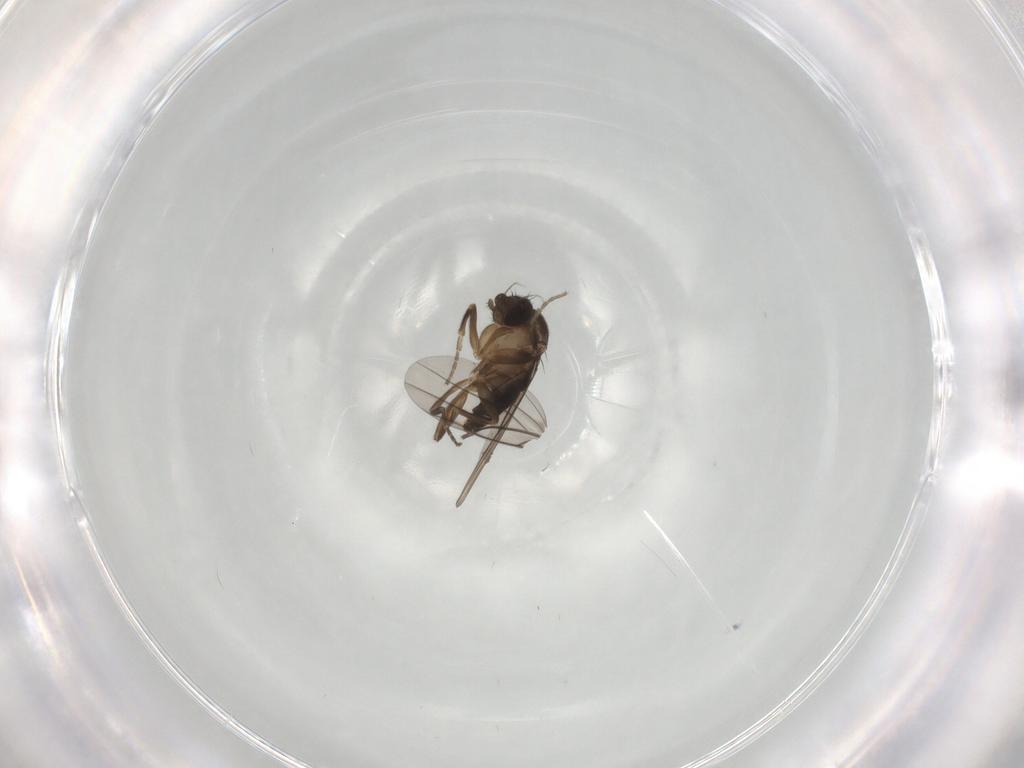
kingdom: Animalia
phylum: Arthropoda
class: Insecta
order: Diptera
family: Phoridae
